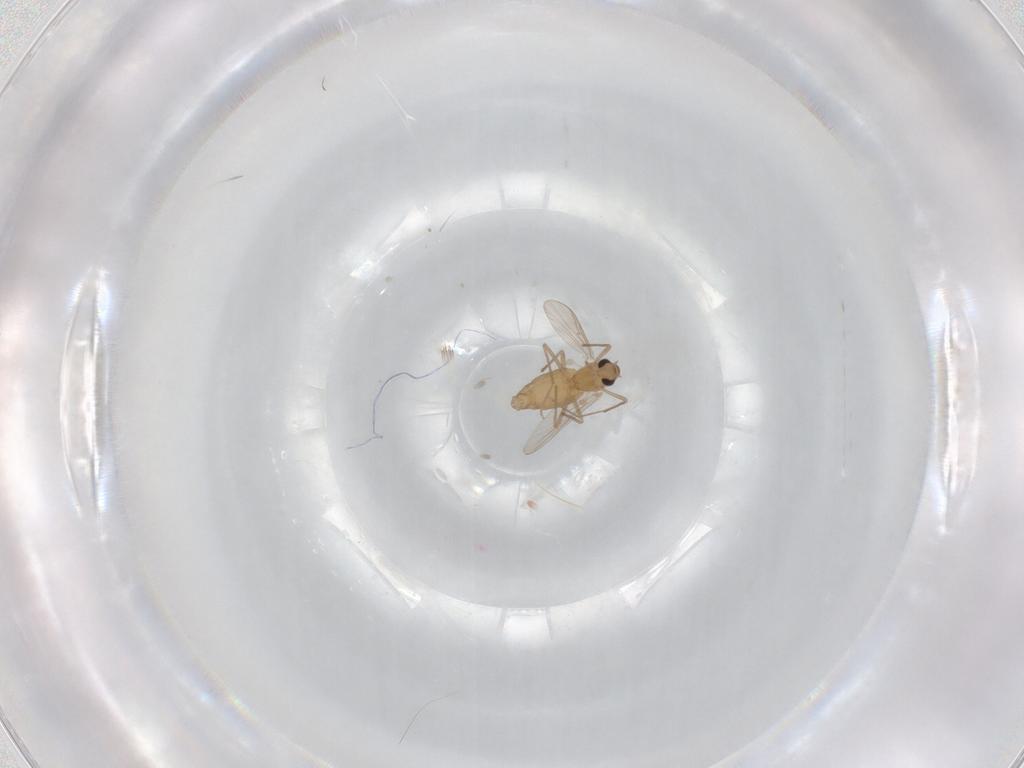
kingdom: Animalia
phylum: Arthropoda
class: Insecta
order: Diptera
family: Chironomidae
